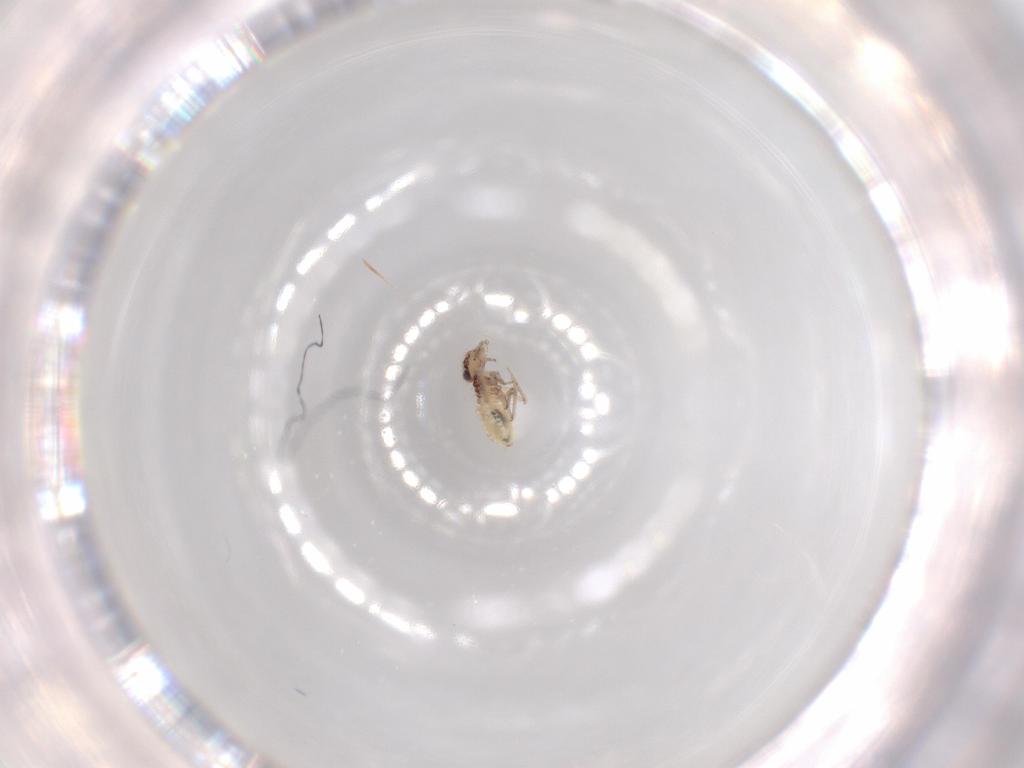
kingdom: Animalia
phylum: Arthropoda
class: Insecta
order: Psocodea
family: Lepidopsocidae
